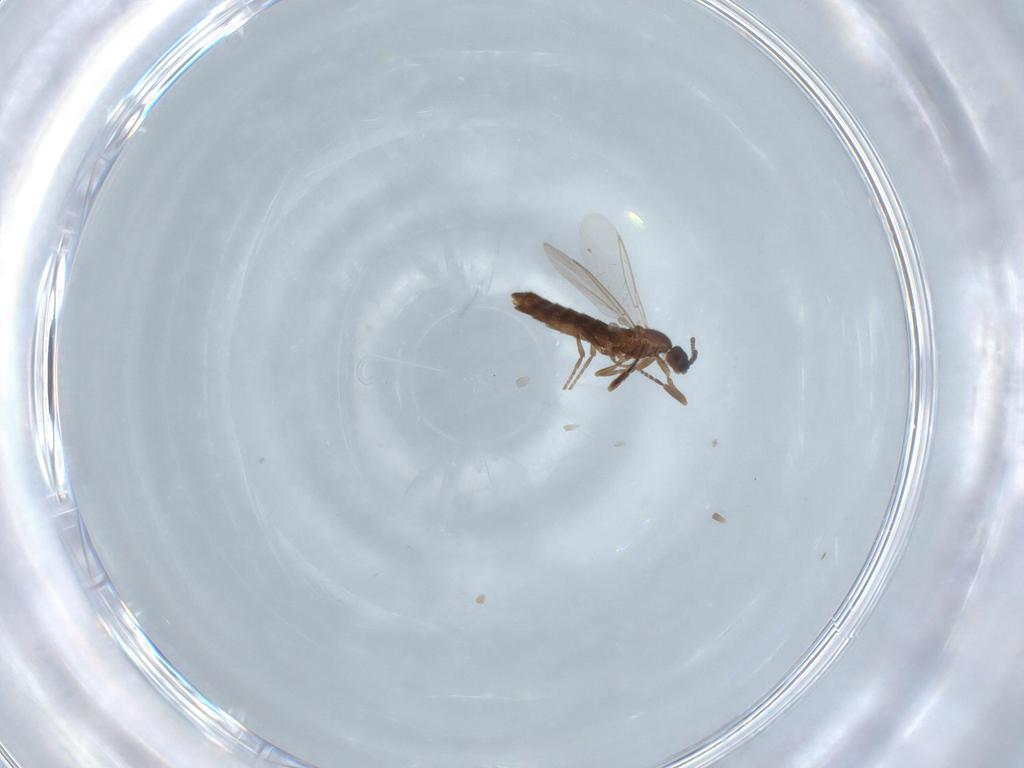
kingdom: Animalia
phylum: Arthropoda
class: Insecta
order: Diptera
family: Scatopsidae
